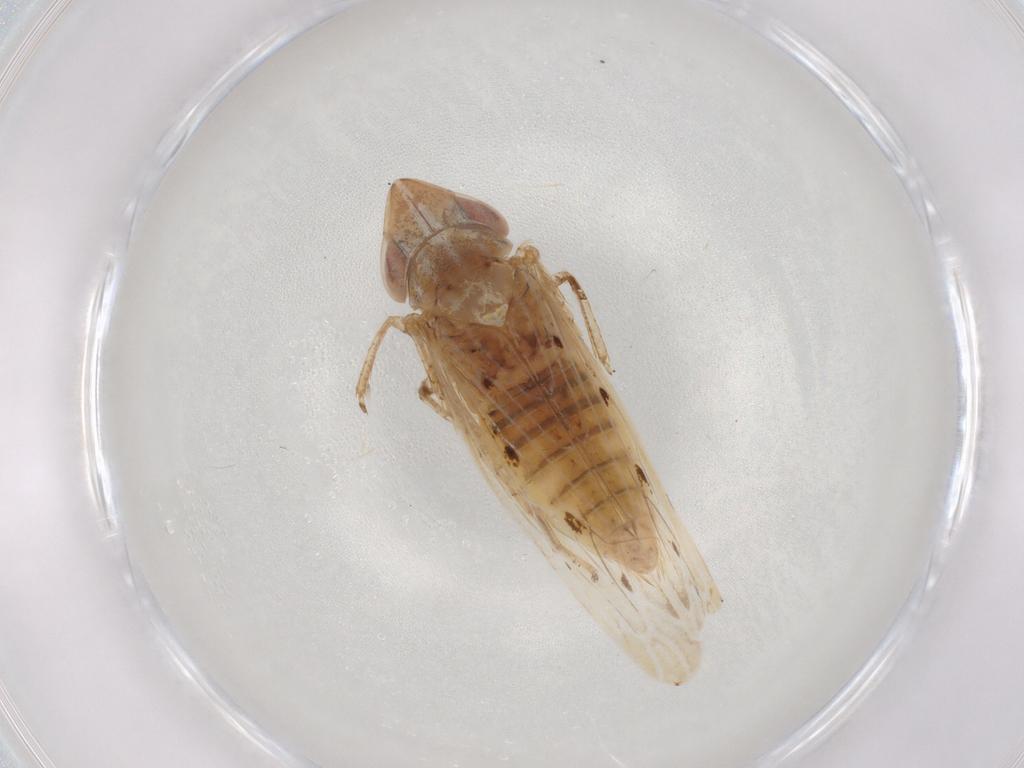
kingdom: Animalia
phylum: Arthropoda
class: Insecta
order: Hemiptera
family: Cicadellidae
